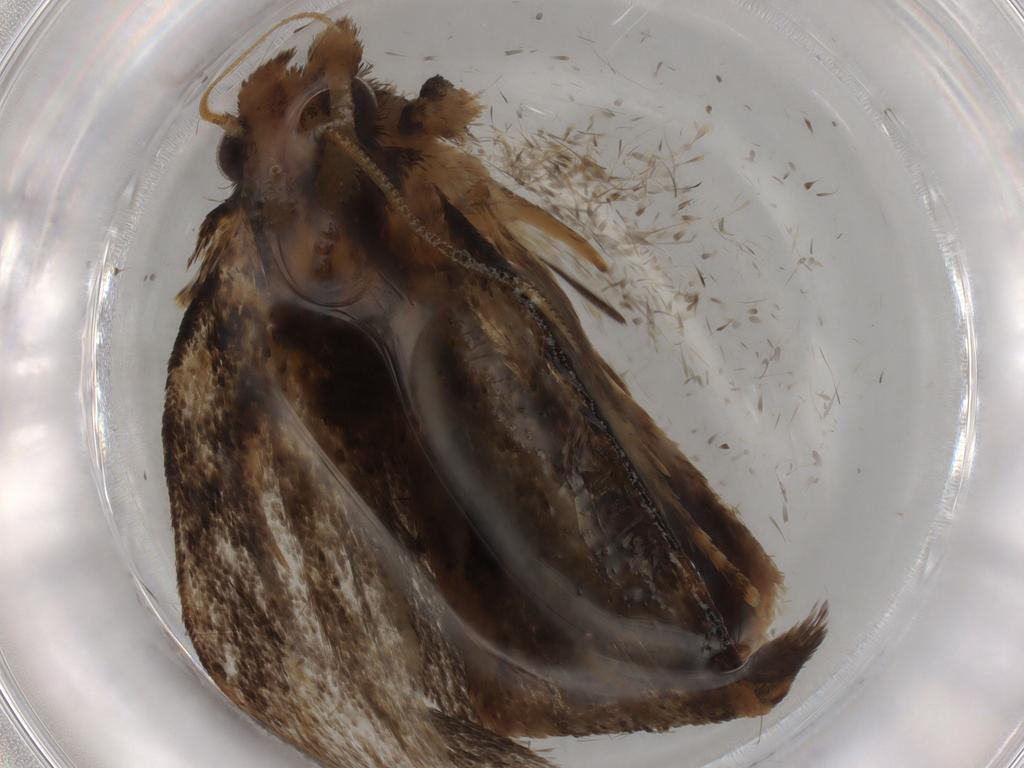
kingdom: Animalia
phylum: Arthropoda
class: Insecta
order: Lepidoptera
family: Tineidae
